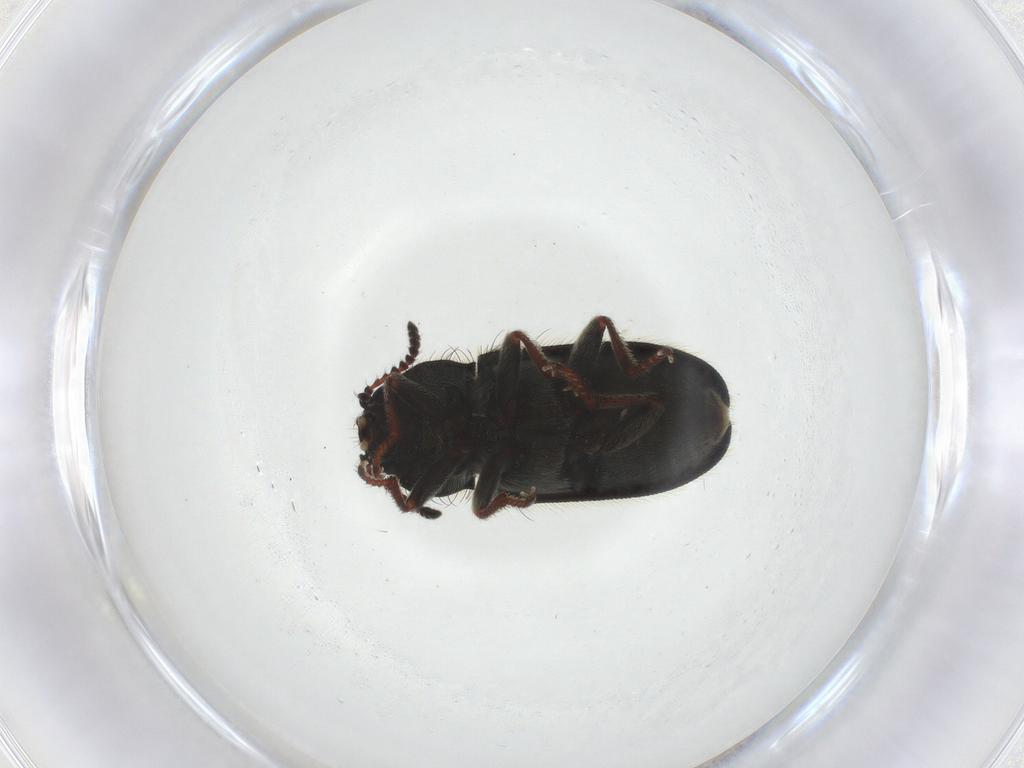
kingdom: Animalia
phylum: Arthropoda
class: Insecta
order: Coleoptera
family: Melyridae
